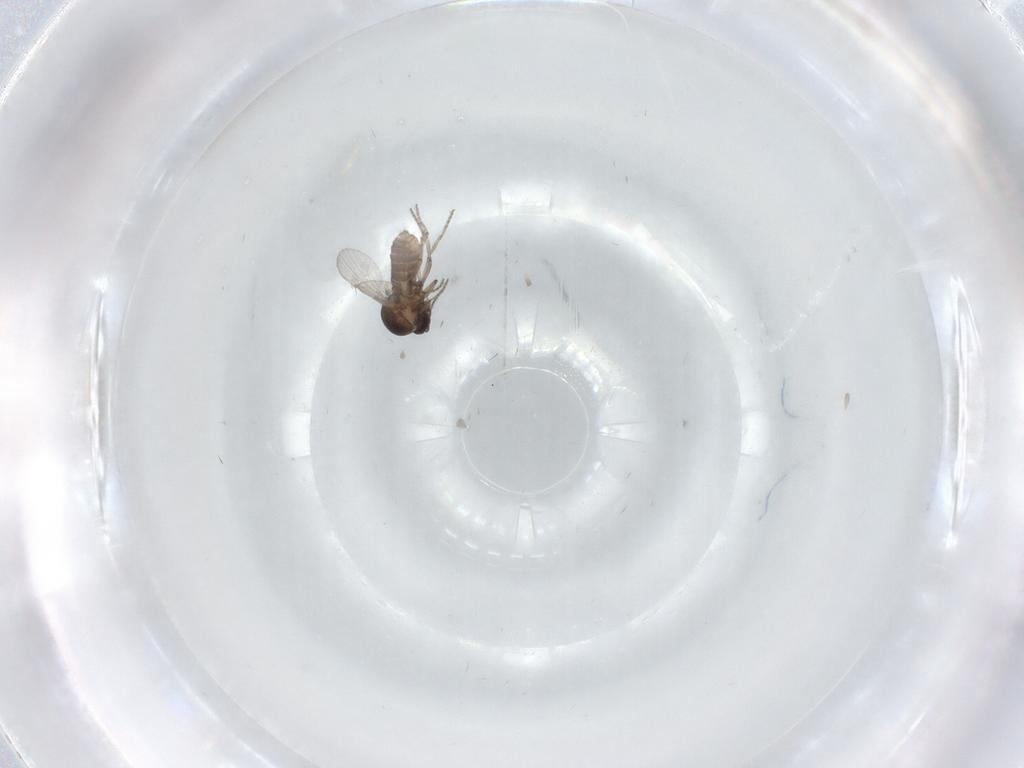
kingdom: Animalia
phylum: Arthropoda
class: Insecta
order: Diptera
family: Ceratopogonidae
